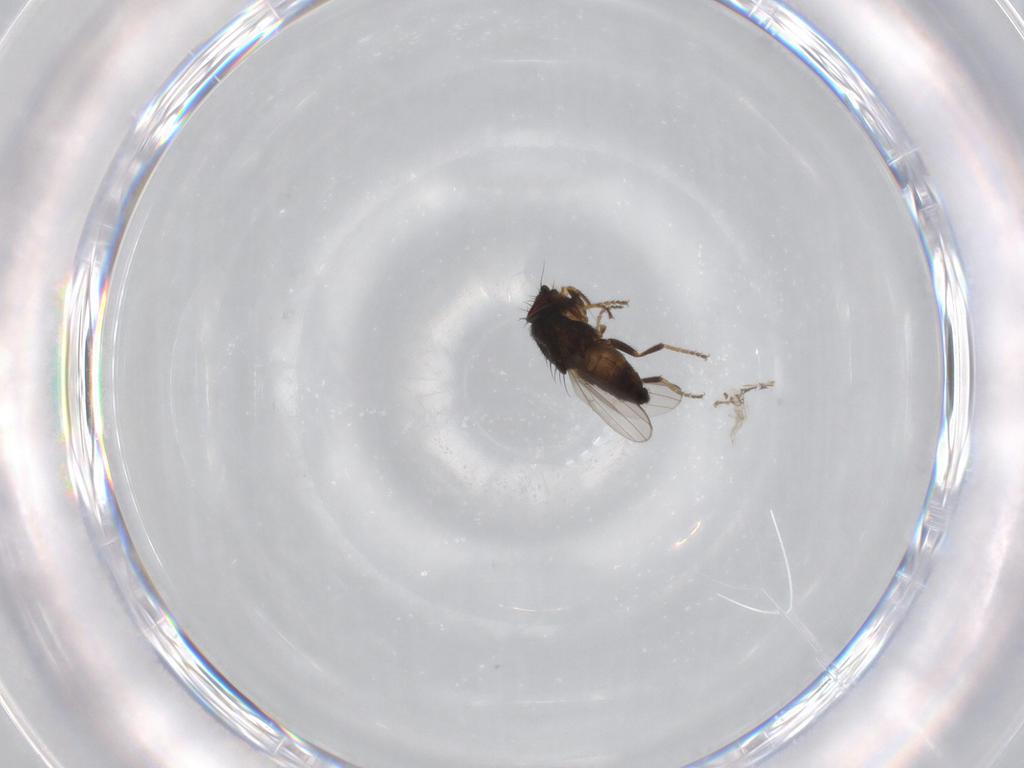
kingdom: Animalia
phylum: Arthropoda
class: Insecta
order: Diptera
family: Milichiidae
